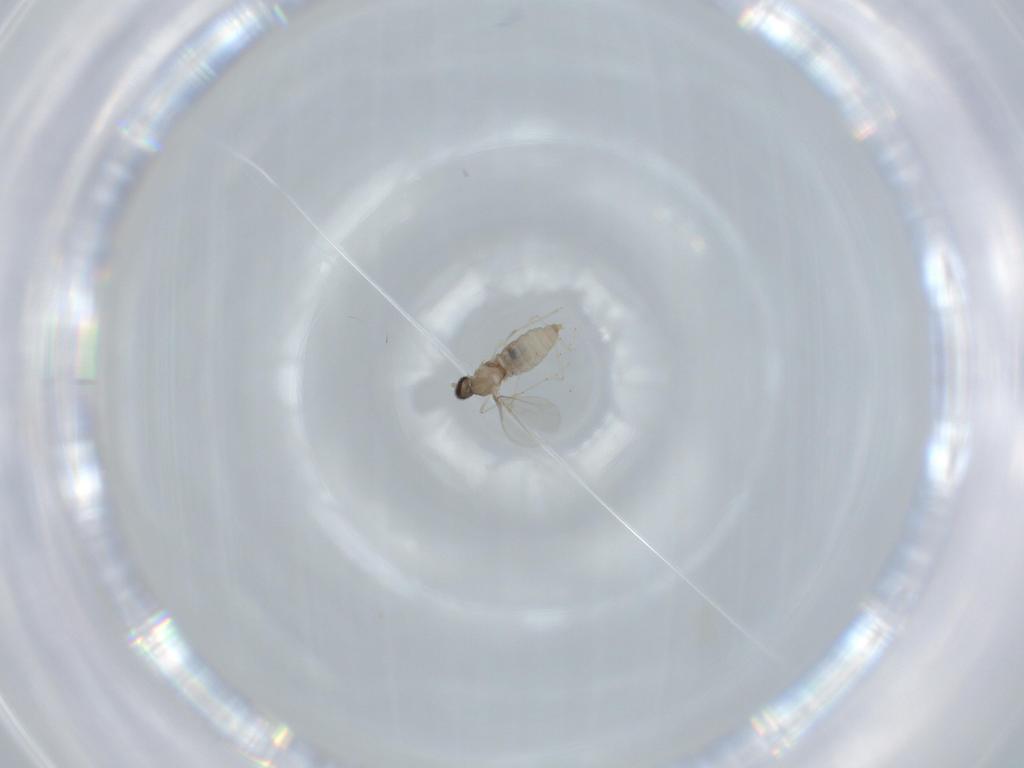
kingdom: Animalia
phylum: Arthropoda
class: Insecta
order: Diptera
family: Cecidomyiidae
